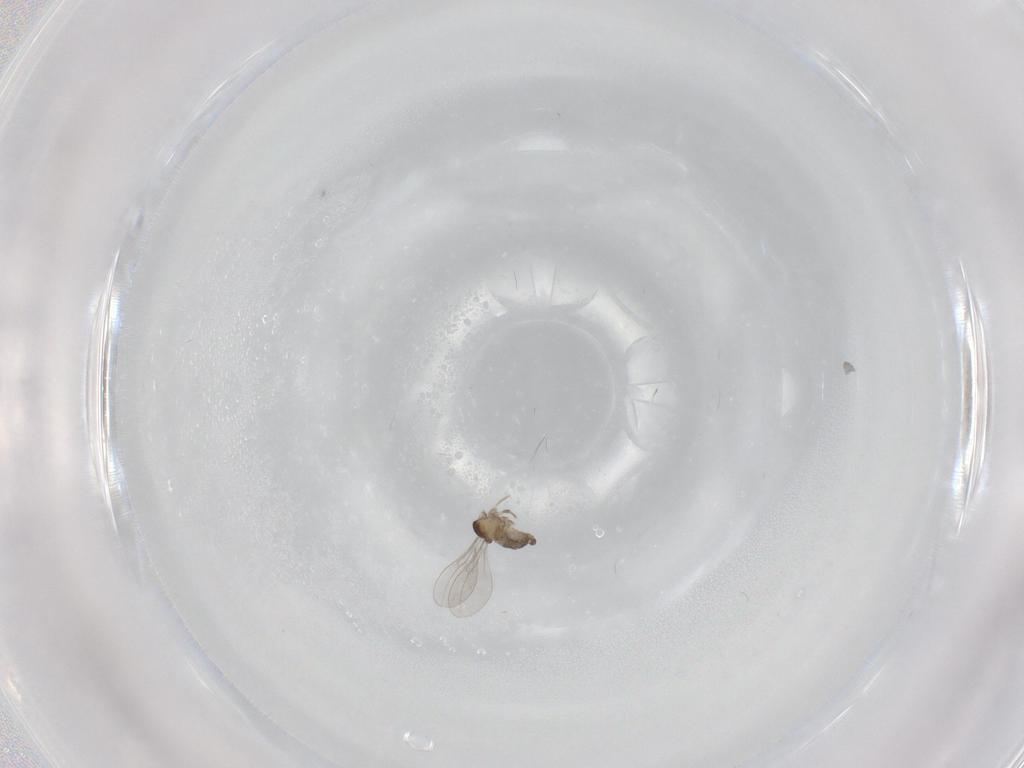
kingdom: Animalia
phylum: Arthropoda
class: Insecta
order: Diptera
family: Cecidomyiidae
